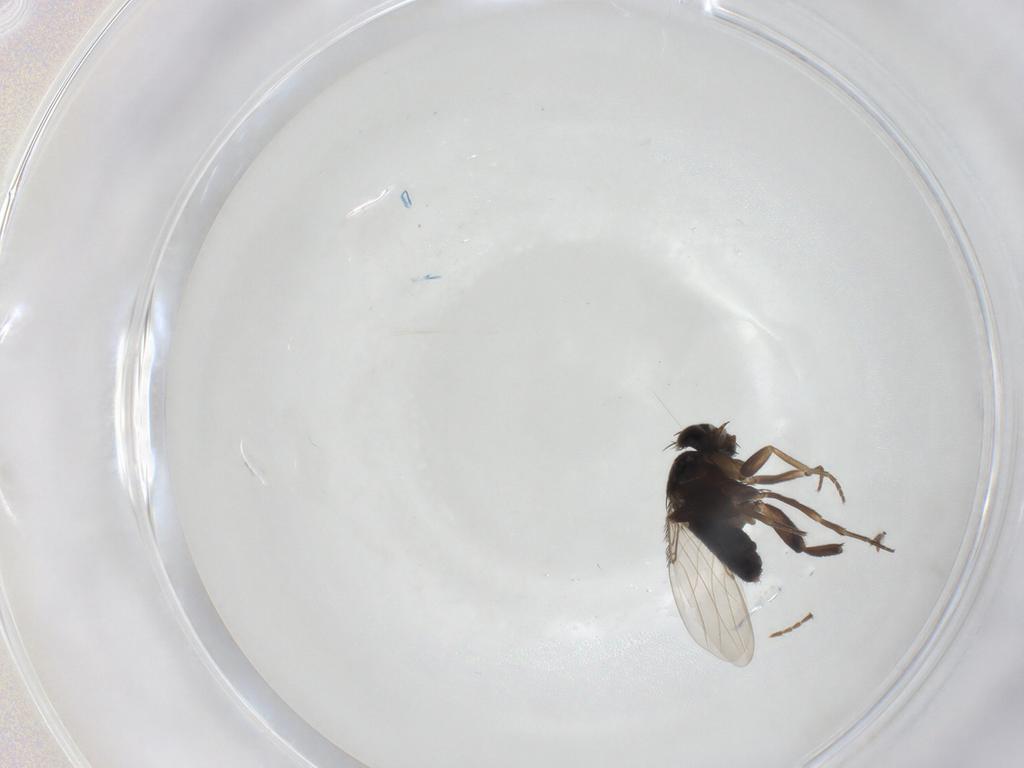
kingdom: Animalia
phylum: Arthropoda
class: Insecta
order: Diptera
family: Phoridae
